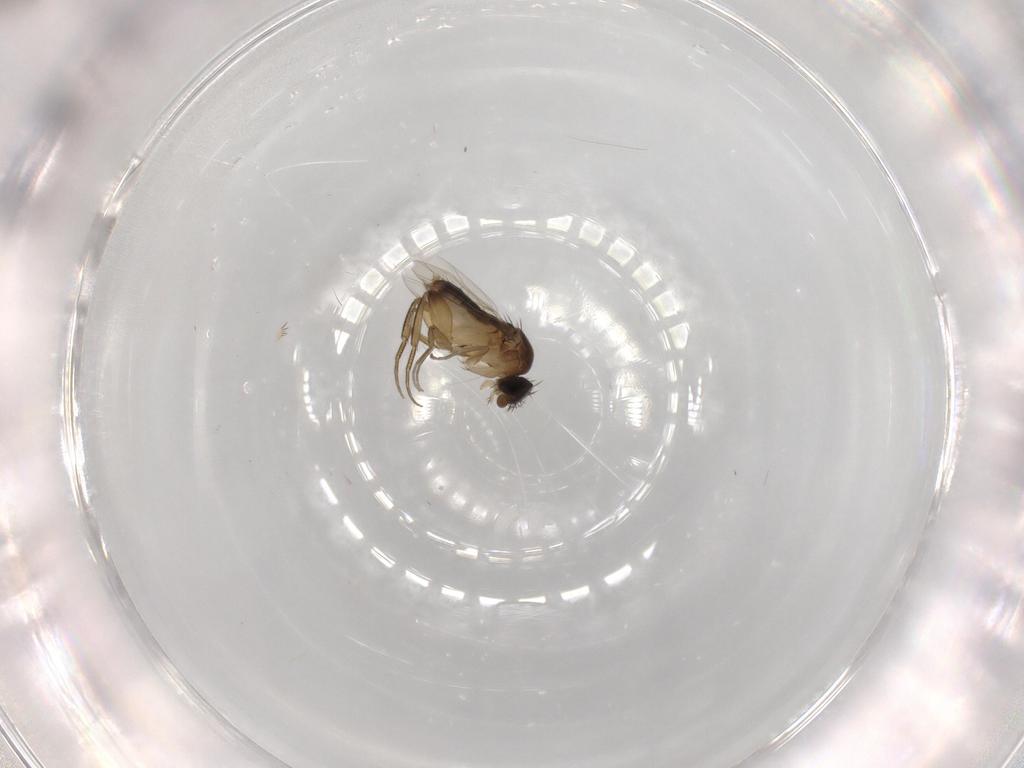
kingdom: Animalia
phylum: Arthropoda
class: Insecta
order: Diptera
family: Phoridae
